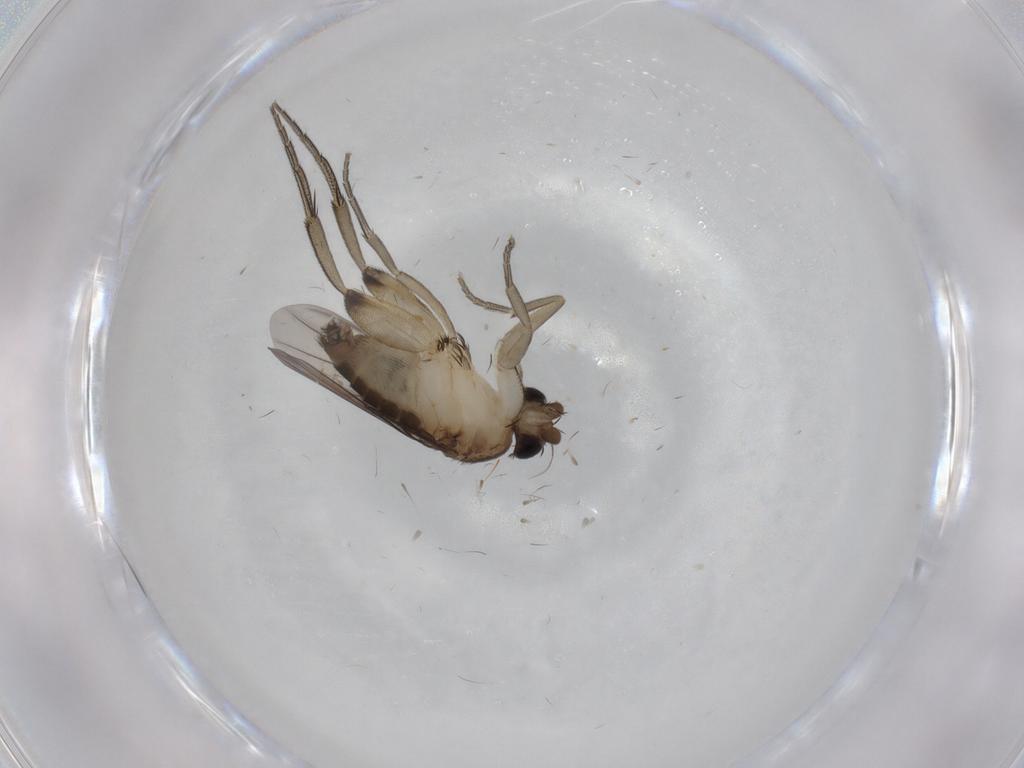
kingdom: Animalia
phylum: Arthropoda
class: Insecta
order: Diptera
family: Phoridae
